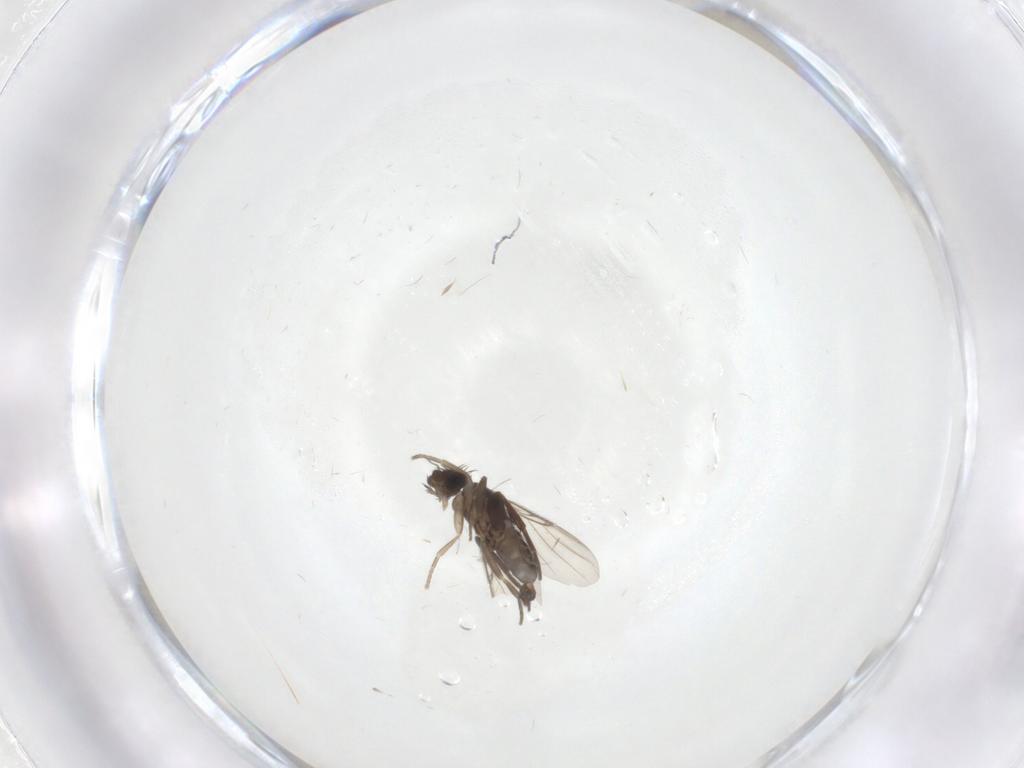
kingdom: Animalia
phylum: Arthropoda
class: Insecta
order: Diptera
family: Phoridae
